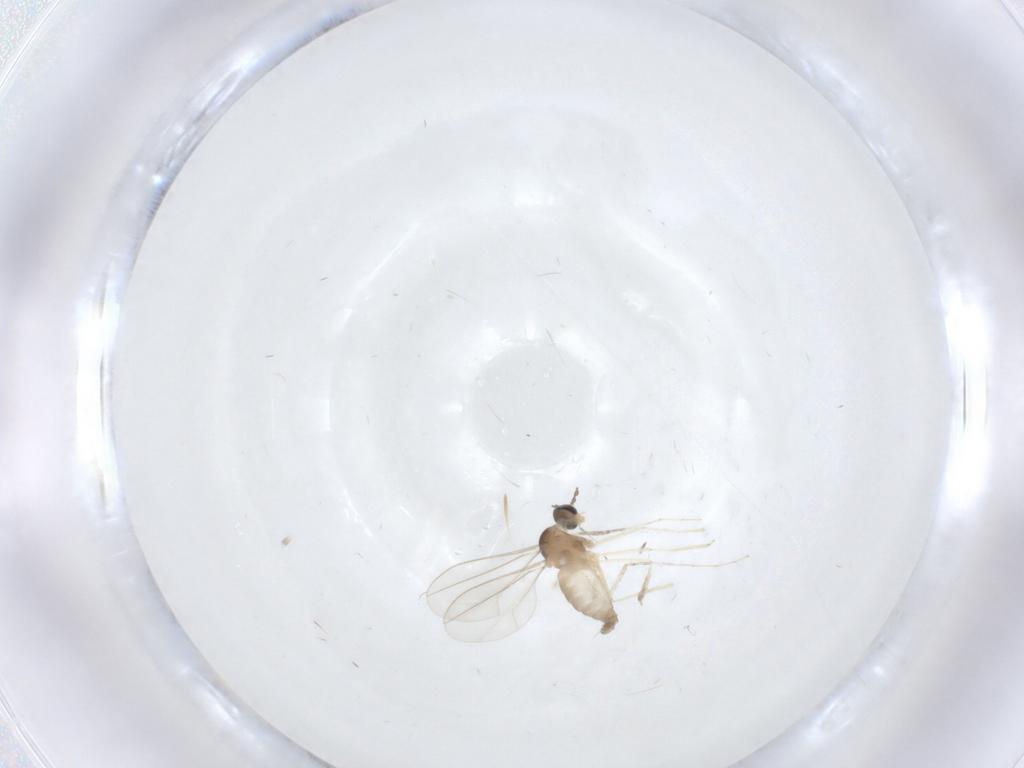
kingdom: Animalia
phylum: Arthropoda
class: Insecta
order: Diptera
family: Cecidomyiidae
